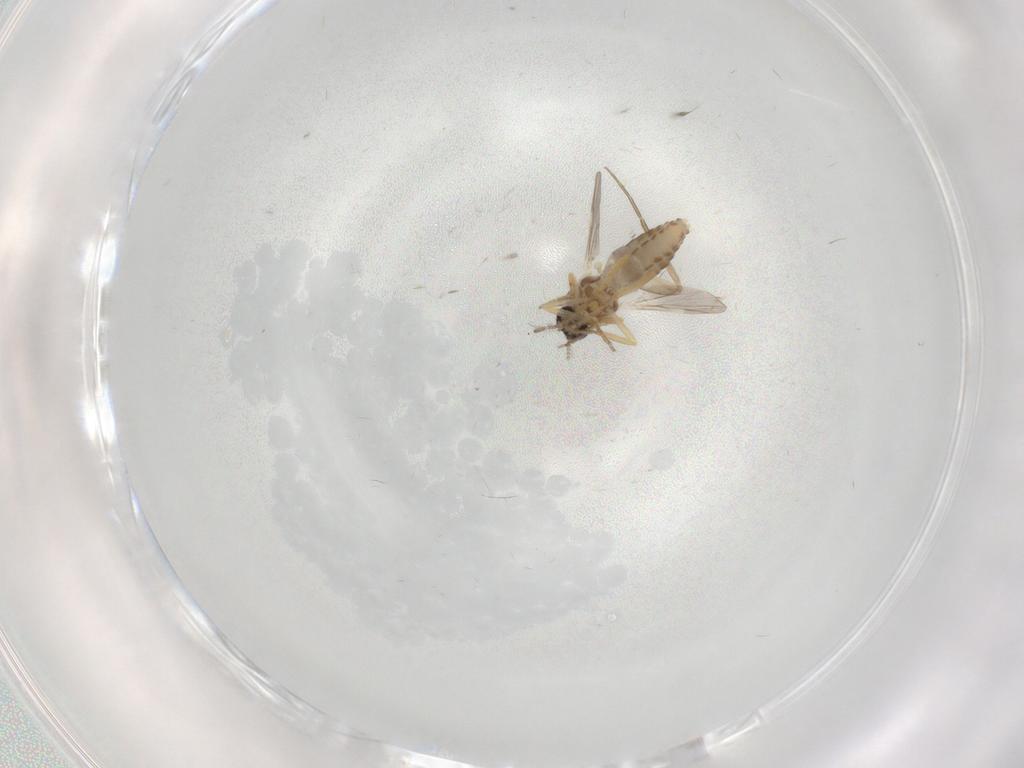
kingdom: Animalia
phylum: Arthropoda
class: Insecta
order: Diptera
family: Ceratopogonidae
